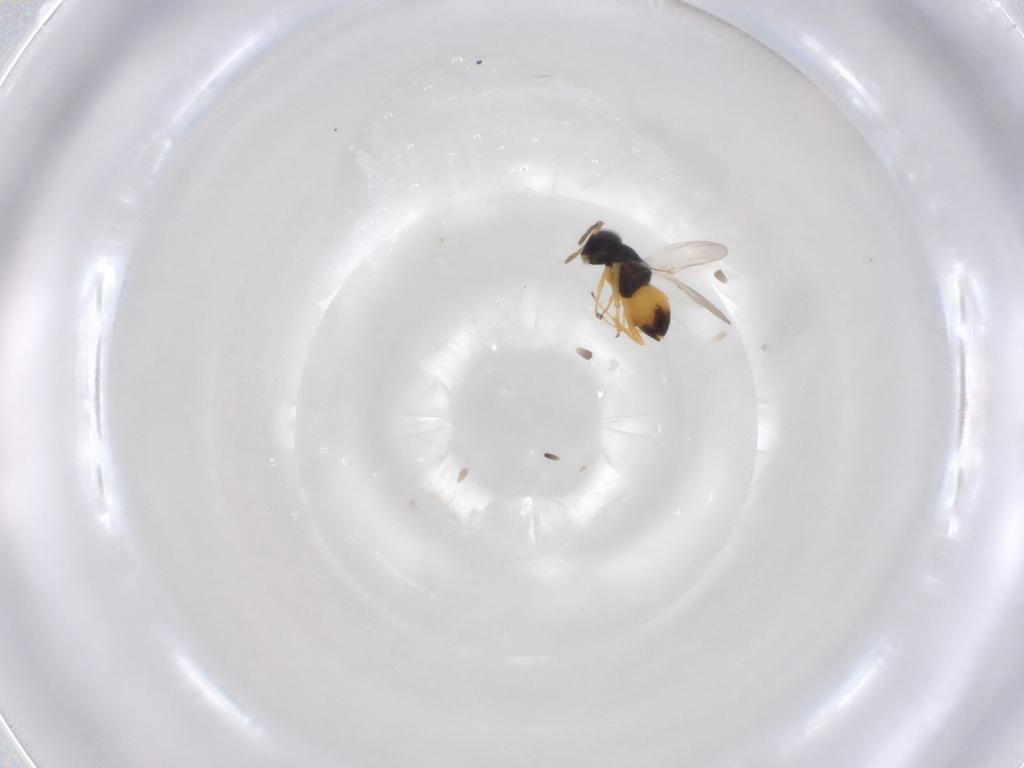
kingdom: Animalia
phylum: Arthropoda
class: Insecta
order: Hymenoptera
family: Encyrtidae
